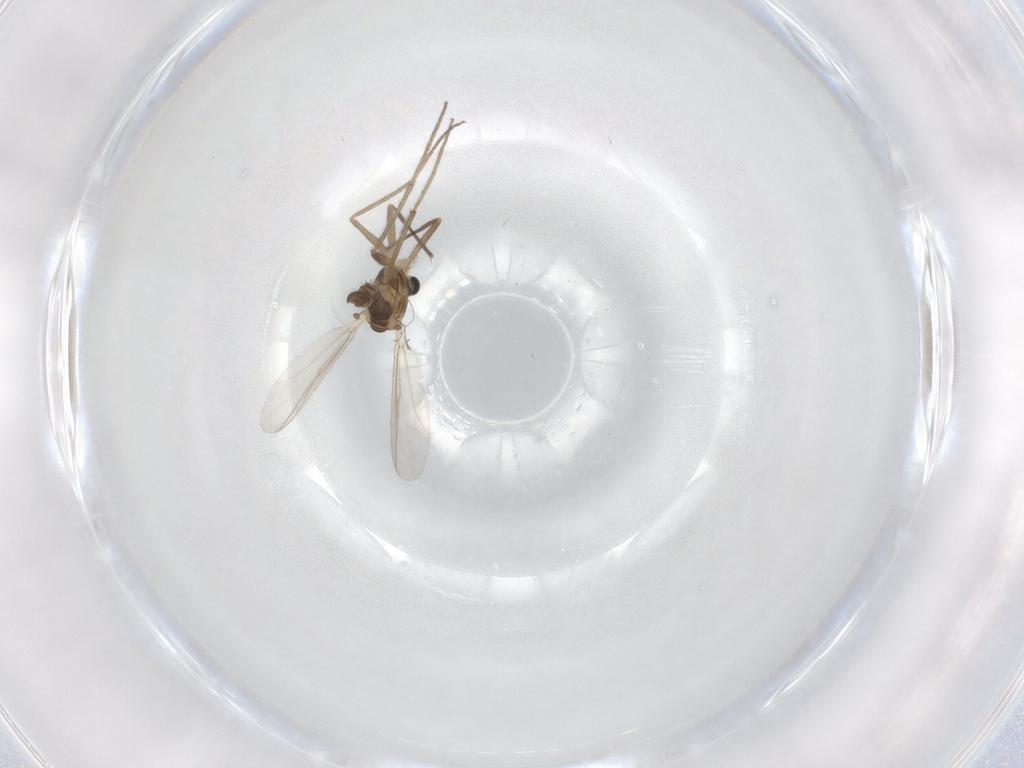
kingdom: Animalia
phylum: Arthropoda
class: Insecta
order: Diptera
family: Chironomidae
